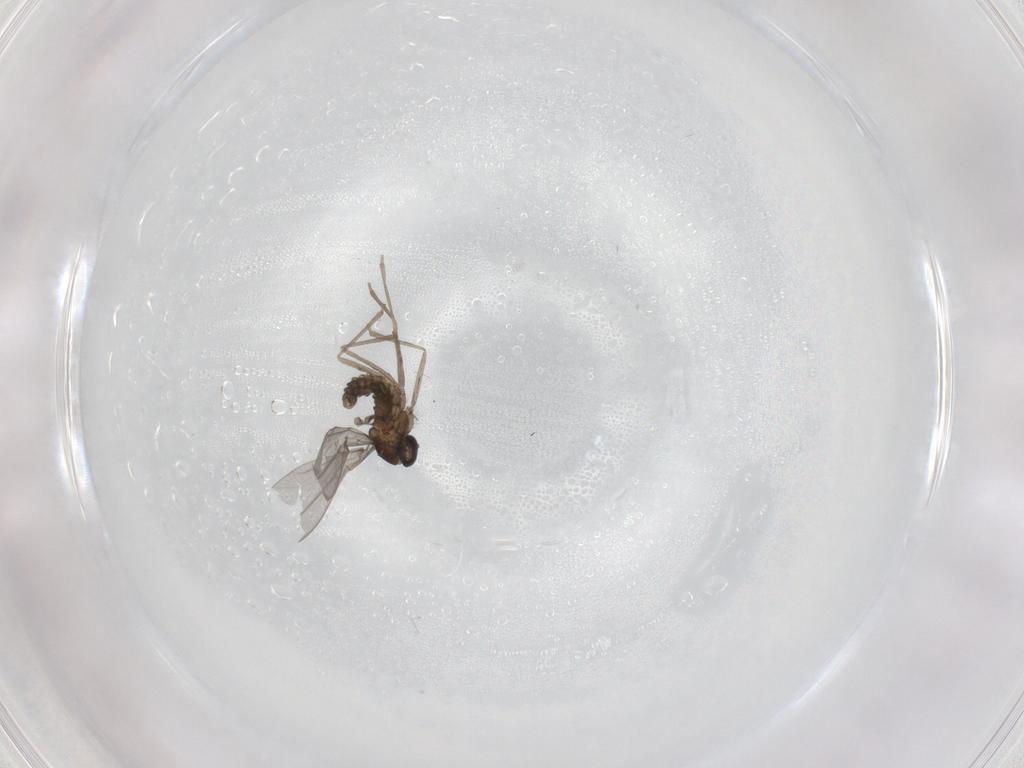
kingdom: Animalia
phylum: Arthropoda
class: Insecta
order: Diptera
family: Cecidomyiidae
